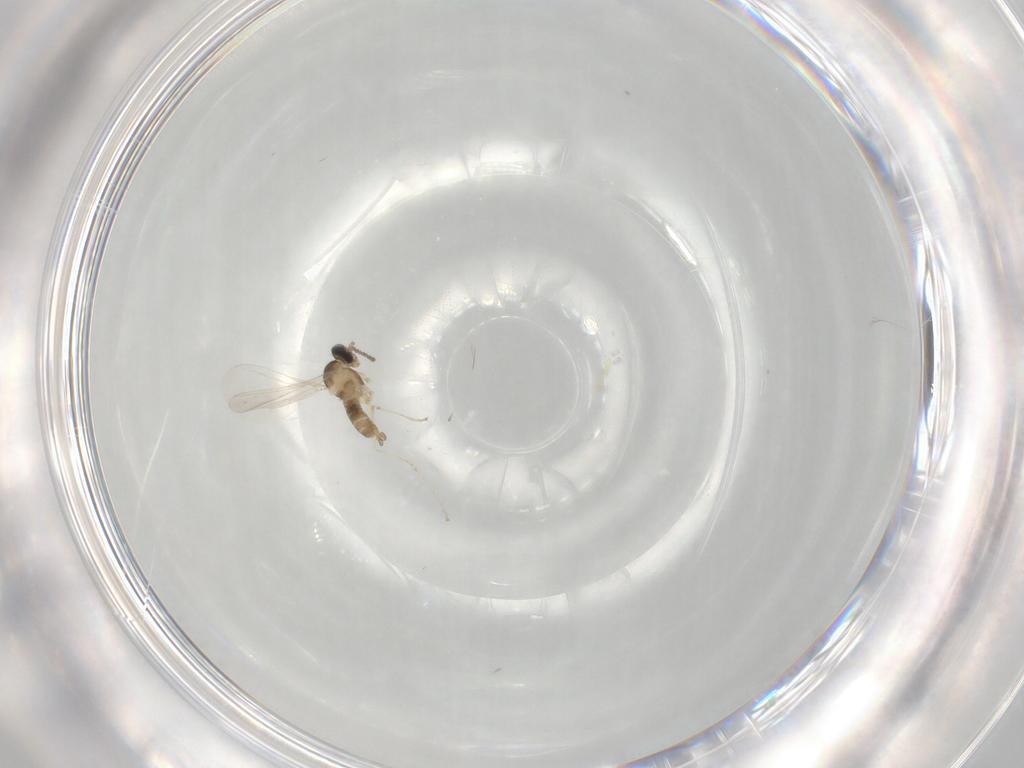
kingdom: Animalia
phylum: Arthropoda
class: Insecta
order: Diptera
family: Cecidomyiidae
